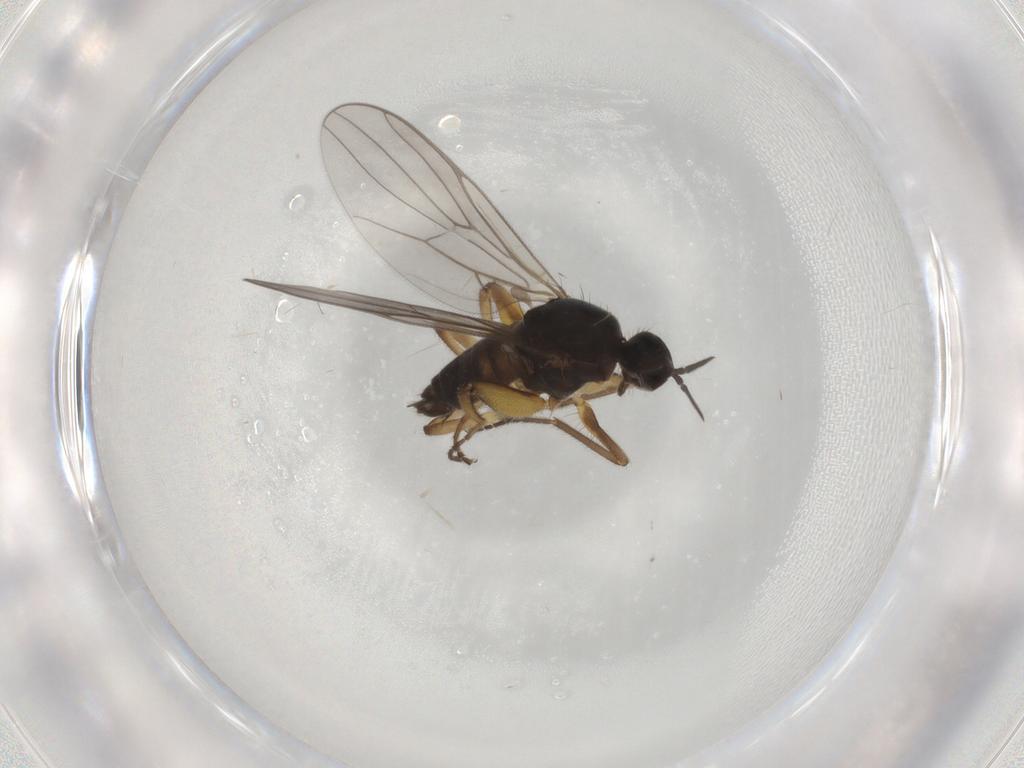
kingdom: Animalia
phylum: Arthropoda
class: Insecta
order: Diptera
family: Hybotidae
